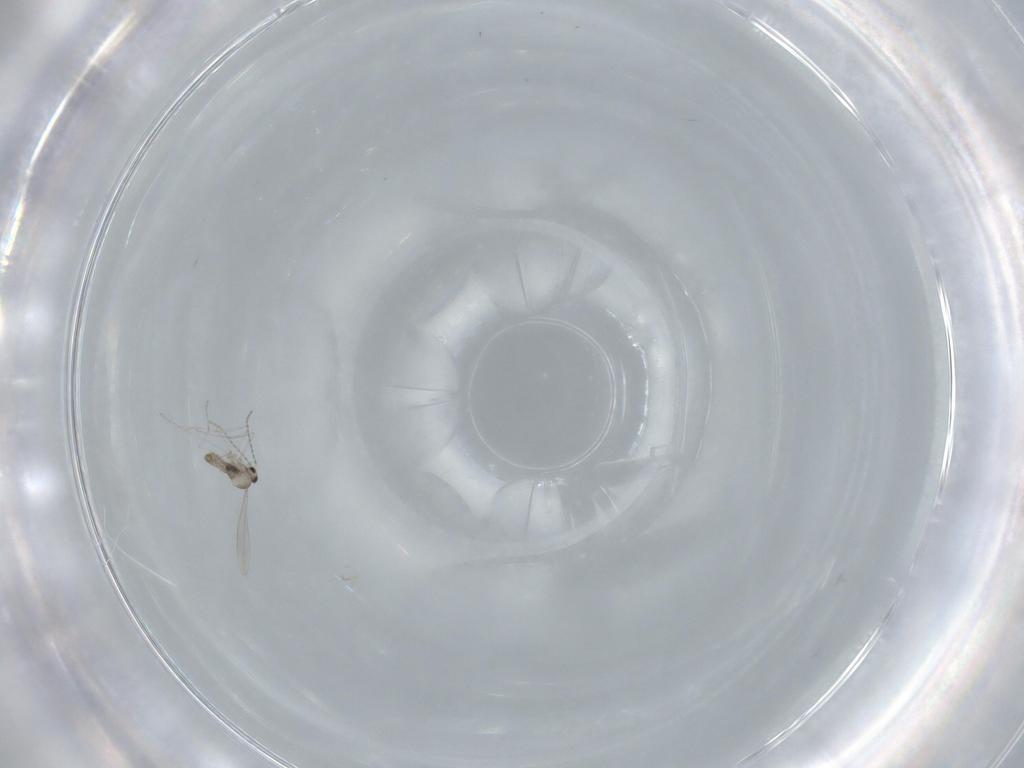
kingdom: Animalia
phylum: Arthropoda
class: Insecta
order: Diptera
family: Cecidomyiidae
